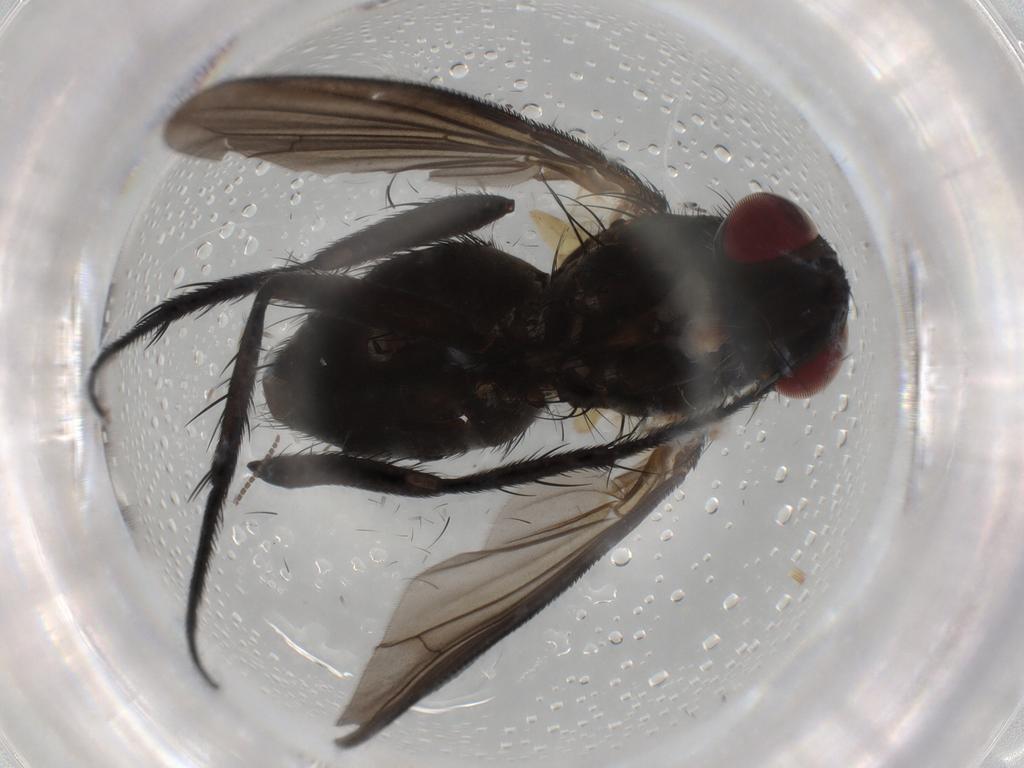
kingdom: Animalia
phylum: Arthropoda
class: Insecta
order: Diptera
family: Sciaridae
